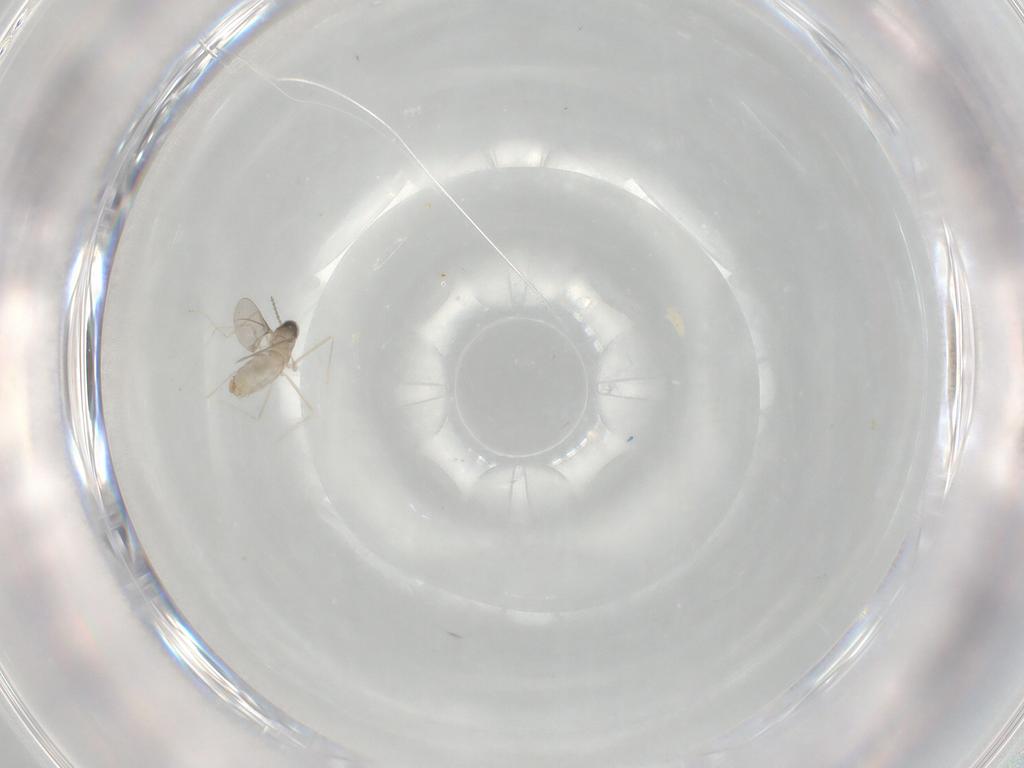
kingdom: Animalia
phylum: Arthropoda
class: Insecta
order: Diptera
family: Cecidomyiidae
